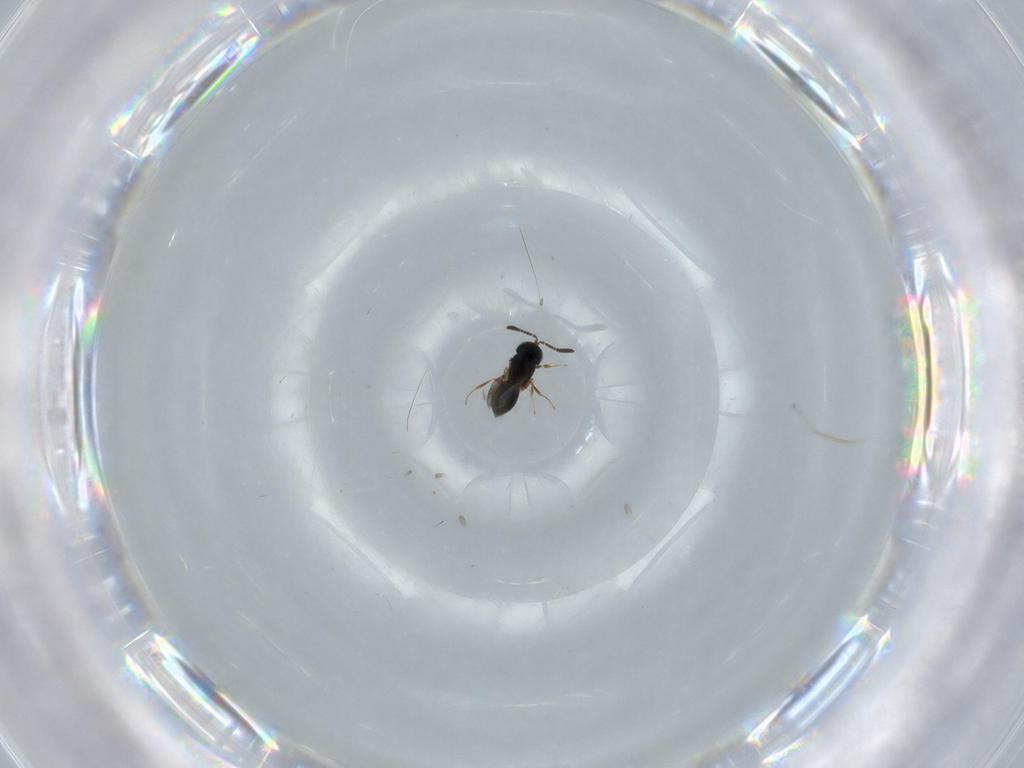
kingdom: Animalia
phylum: Arthropoda
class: Insecta
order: Hymenoptera
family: Scelionidae
